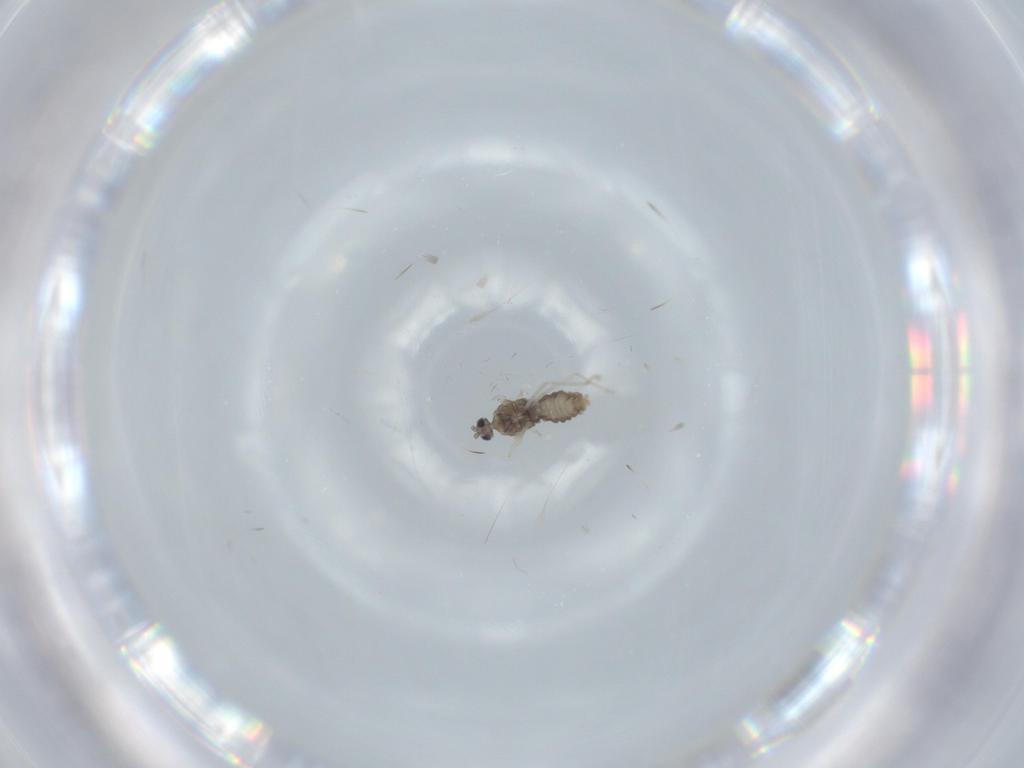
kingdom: Animalia
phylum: Arthropoda
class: Insecta
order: Diptera
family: Cecidomyiidae
